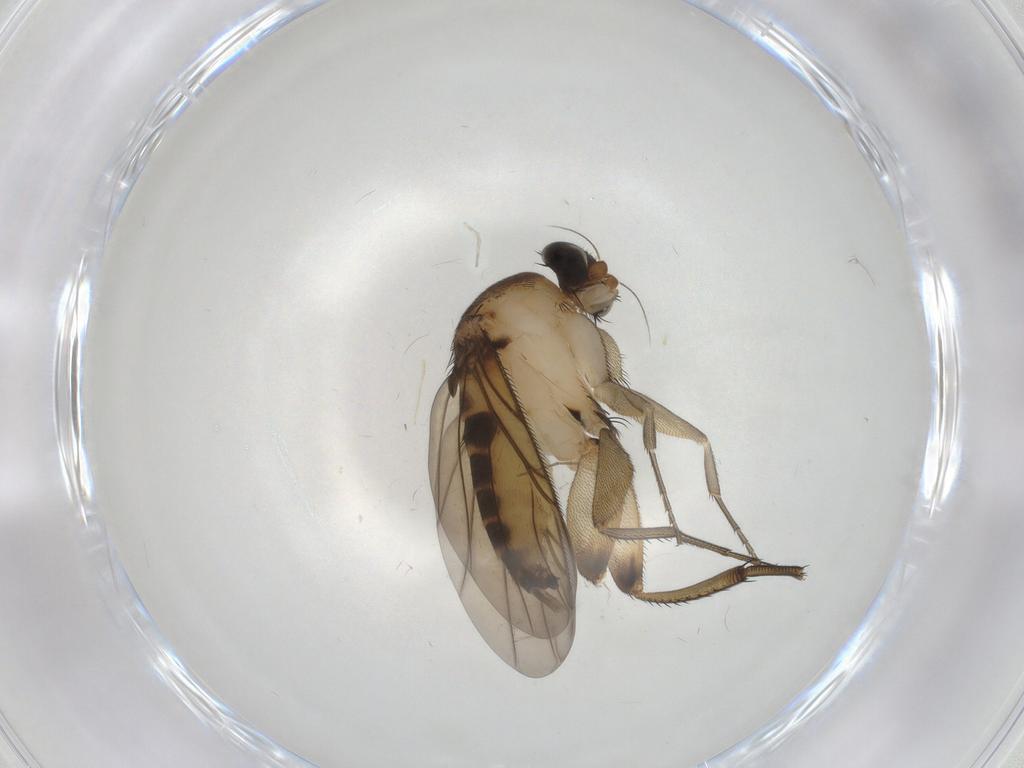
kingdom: Animalia
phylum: Arthropoda
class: Insecta
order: Diptera
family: Phoridae
